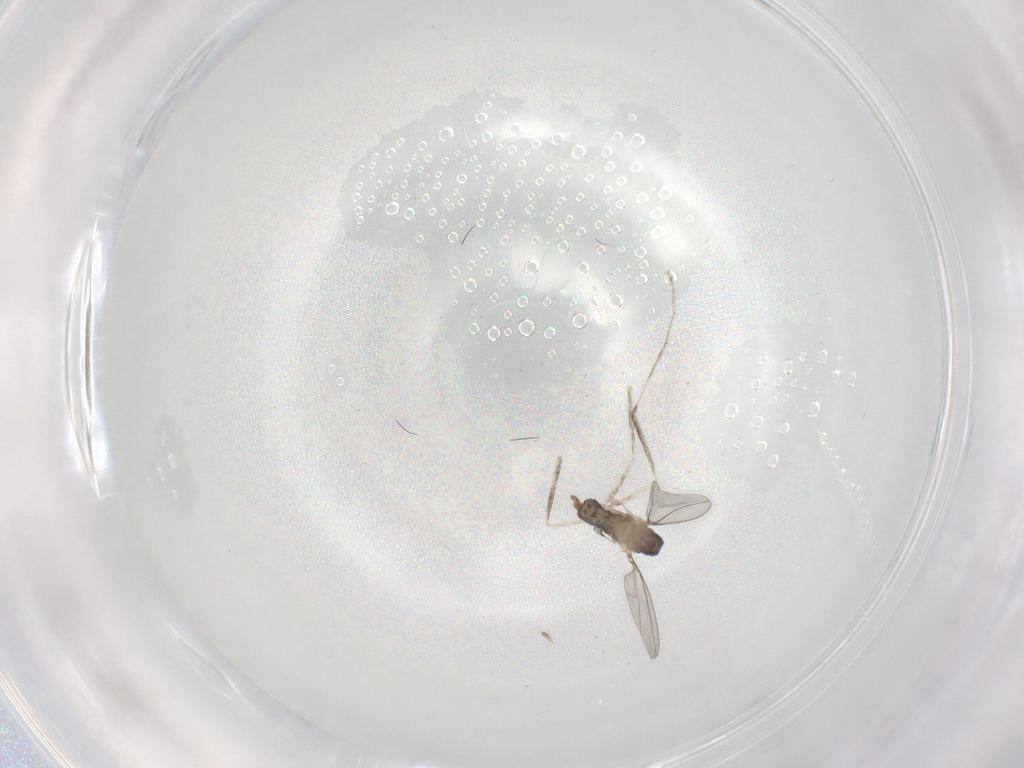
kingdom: Animalia
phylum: Arthropoda
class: Insecta
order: Diptera
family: Cecidomyiidae
